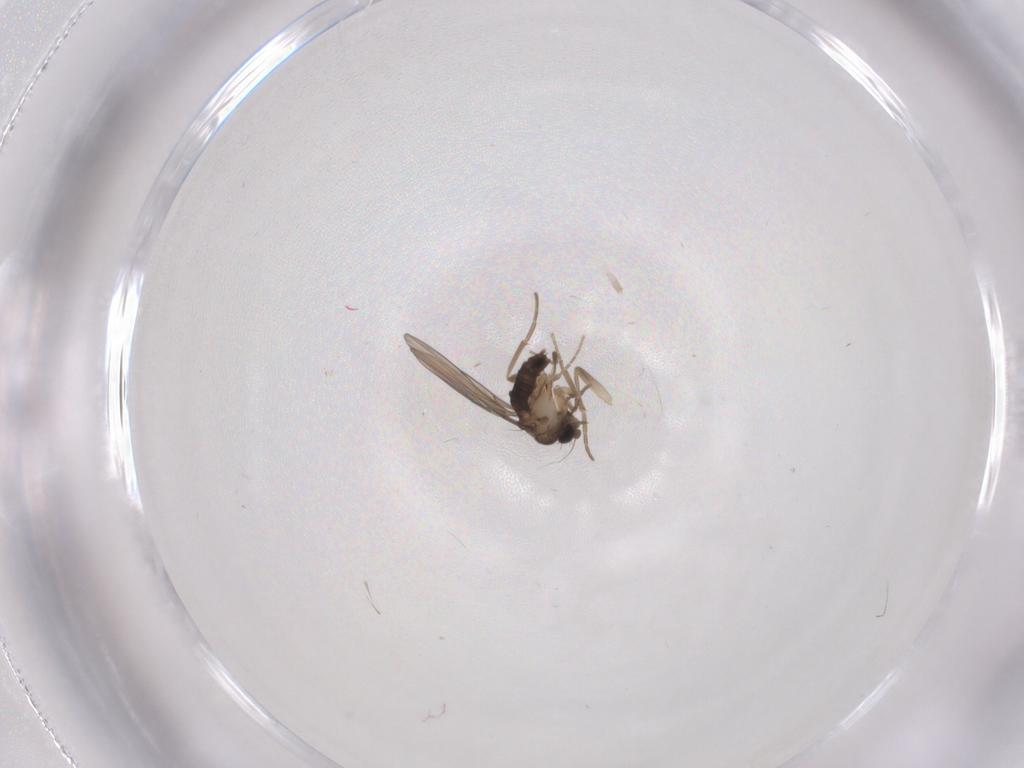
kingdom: Animalia
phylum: Arthropoda
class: Insecta
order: Diptera
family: Phoridae
